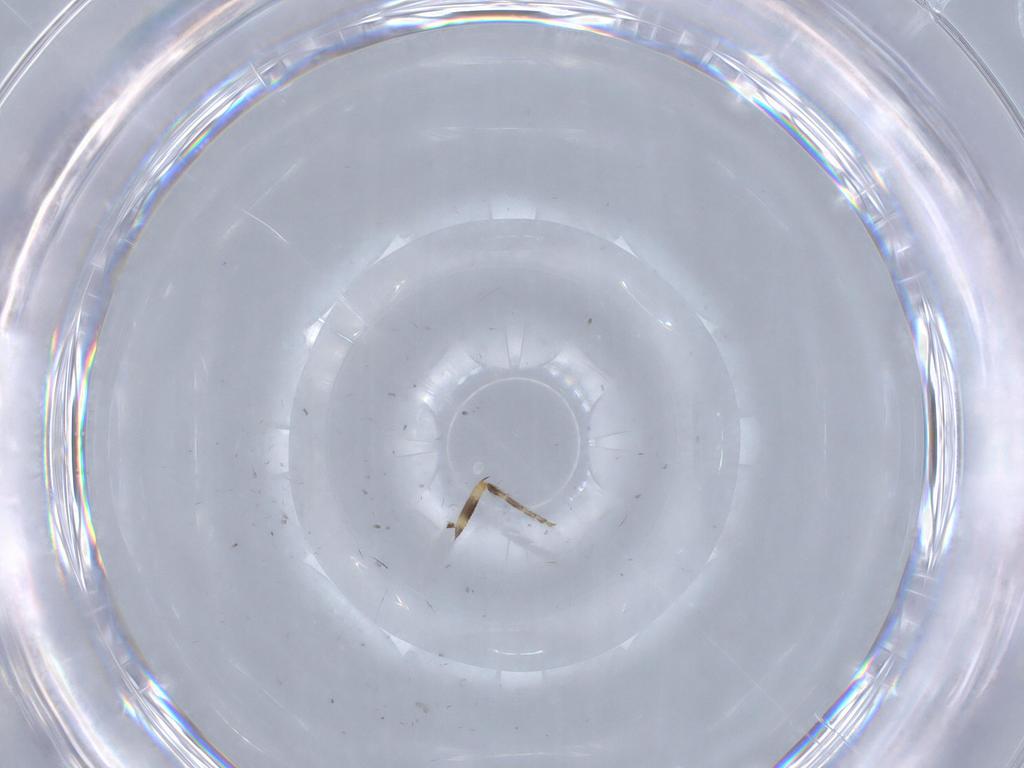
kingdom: Animalia
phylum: Arthropoda
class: Insecta
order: Diptera
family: Ceratopogonidae
